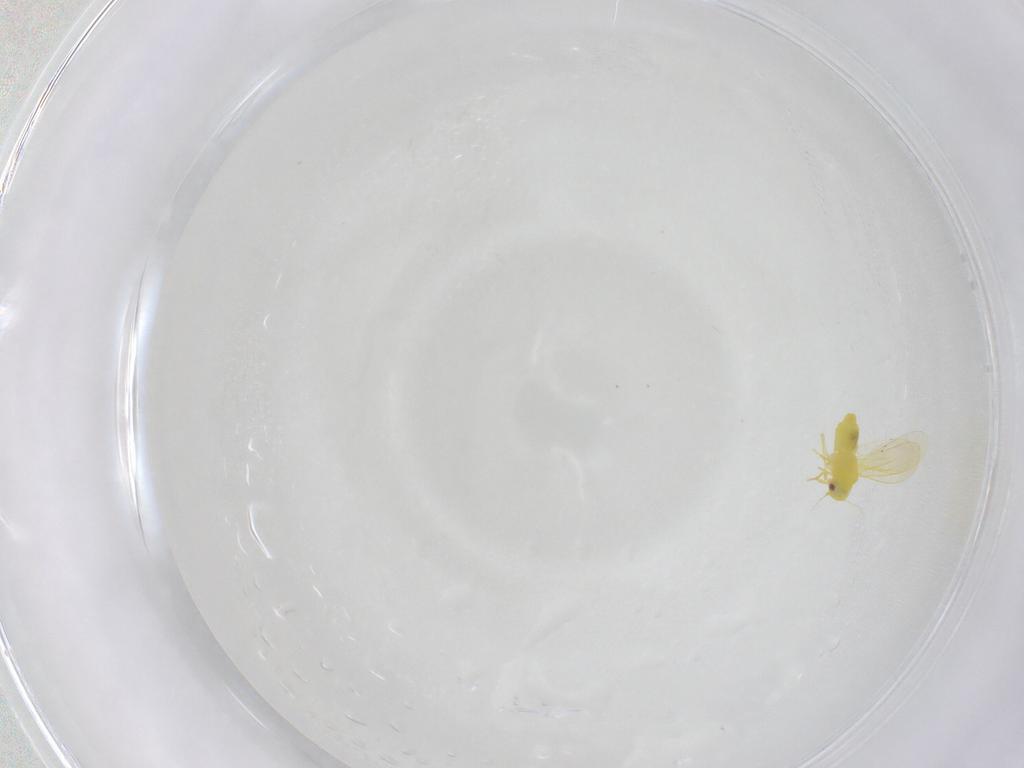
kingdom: Animalia
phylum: Arthropoda
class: Insecta
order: Hemiptera
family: Aleyrodidae
